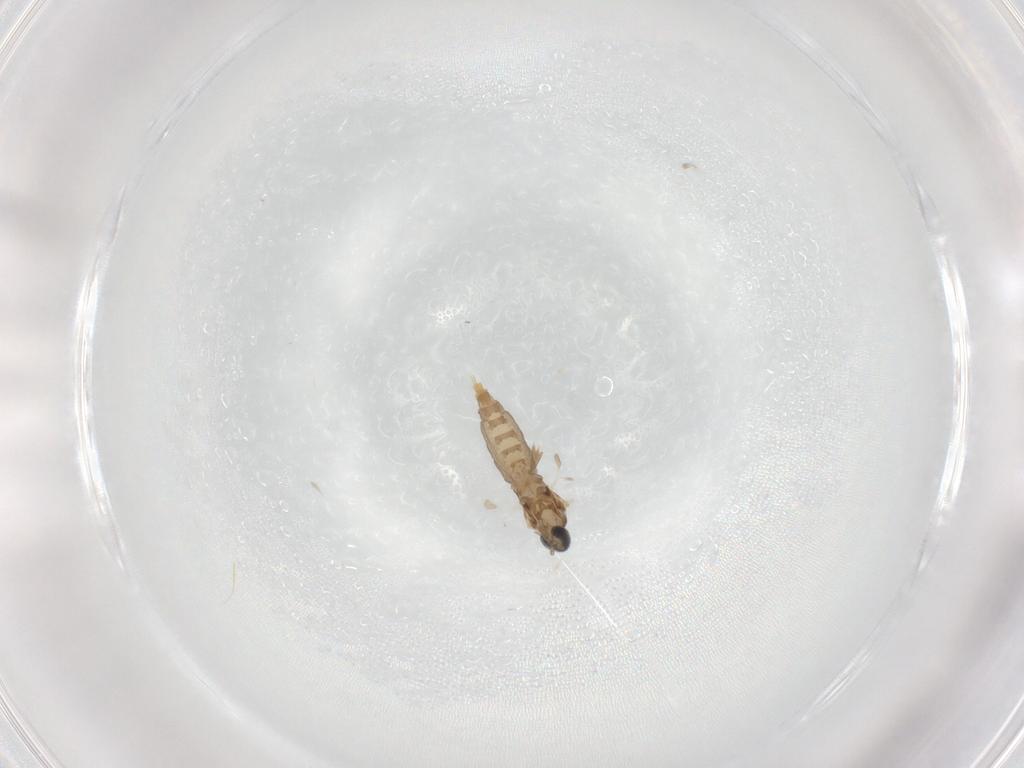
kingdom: Animalia
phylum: Arthropoda
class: Insecta
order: Diptera
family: Cecidomyiidae
